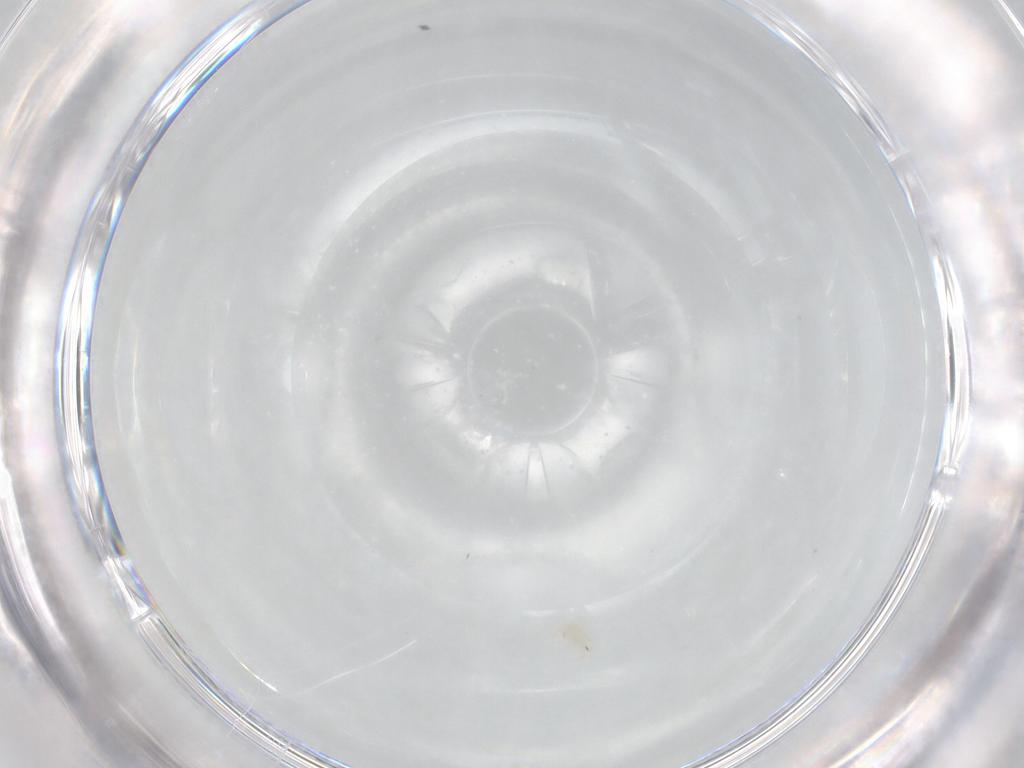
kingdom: Animalia
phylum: Arthropoda
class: Arachnida
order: Trombidiformes
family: Stigmaeidae
